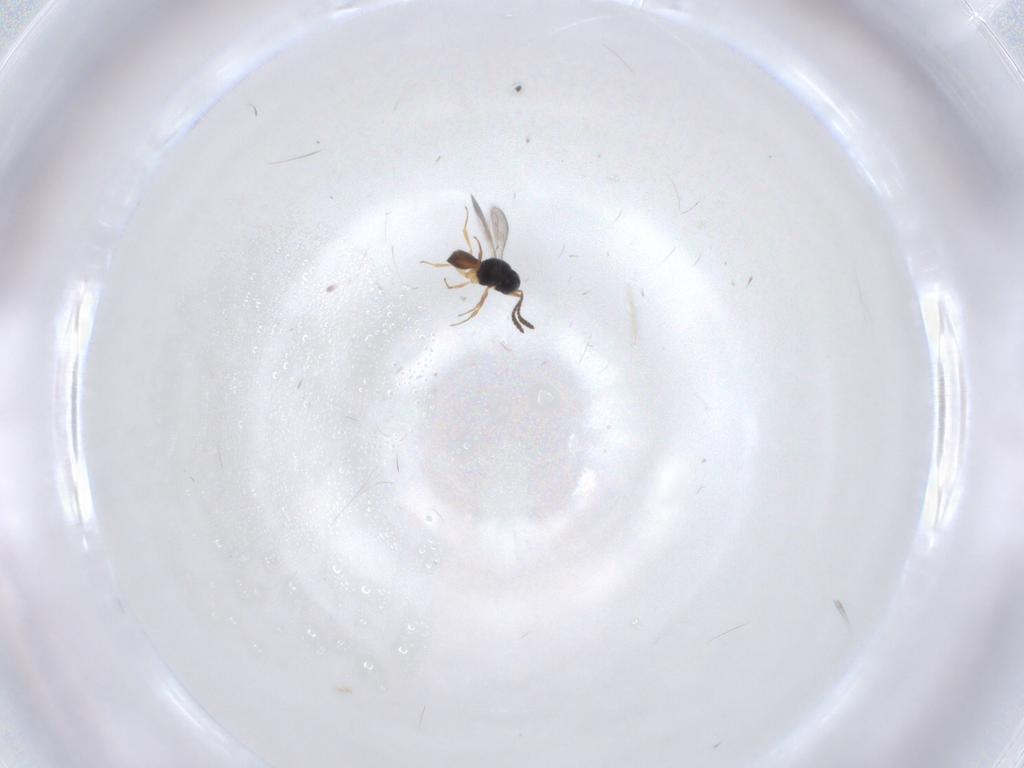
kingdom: Animalia
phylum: Arthropoda
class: Insecta
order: Hymenoptera
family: Scelionidae
